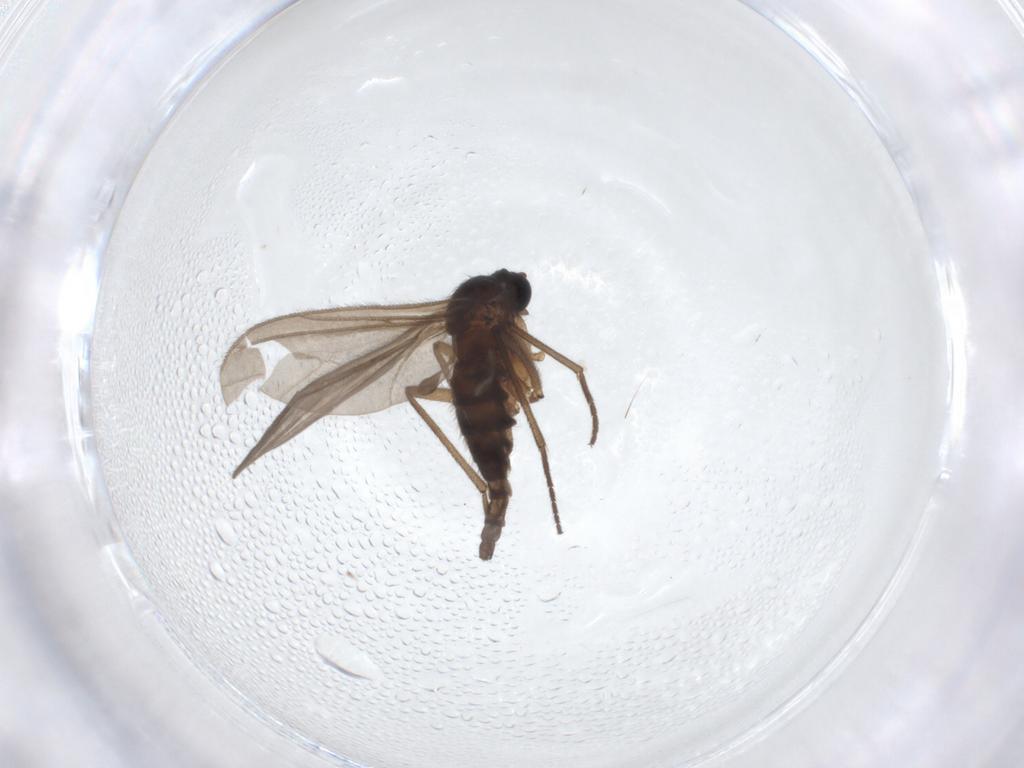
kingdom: Animalia
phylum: Arthropoda
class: Insecta
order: Diptera
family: Sciaridae
